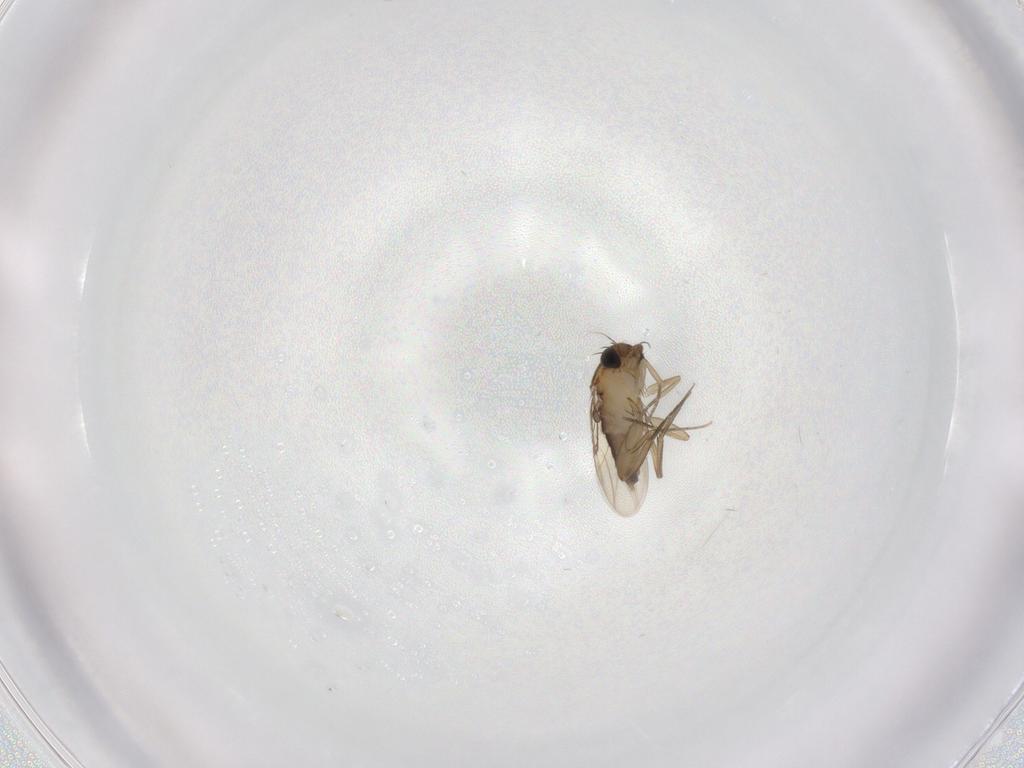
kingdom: Animalia
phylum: Arthropoda
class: Insecta
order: Diptera
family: Phoridae
